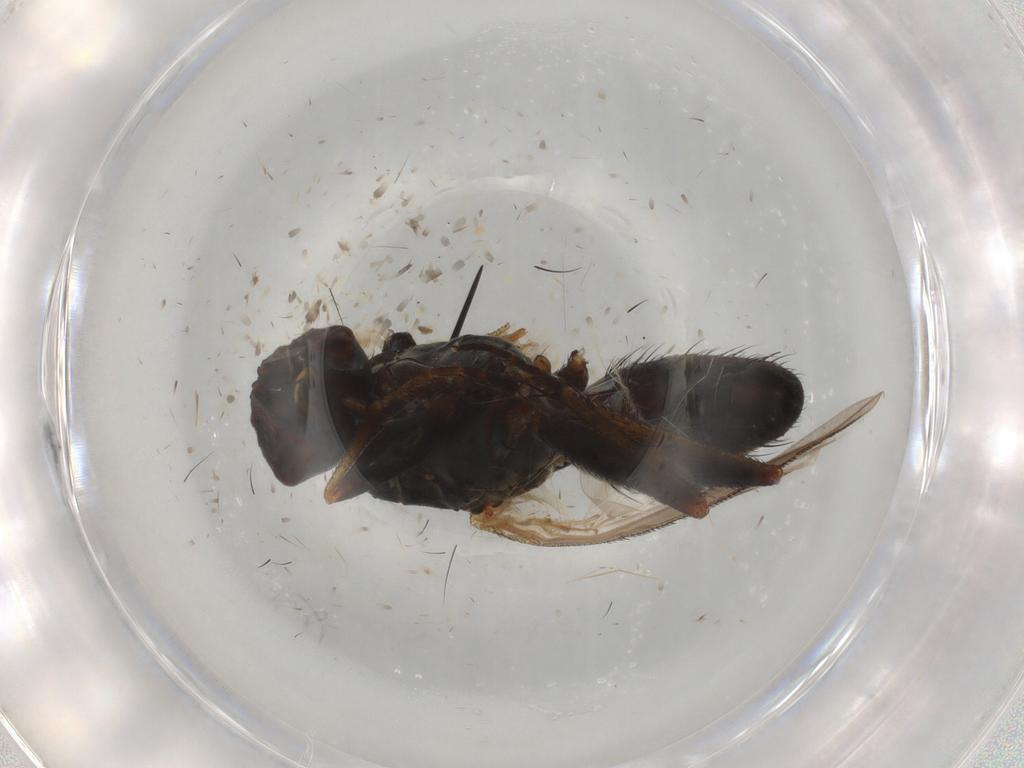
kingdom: Animalia
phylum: Arthropoda
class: Insecta
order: Diptera
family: Muscidae
